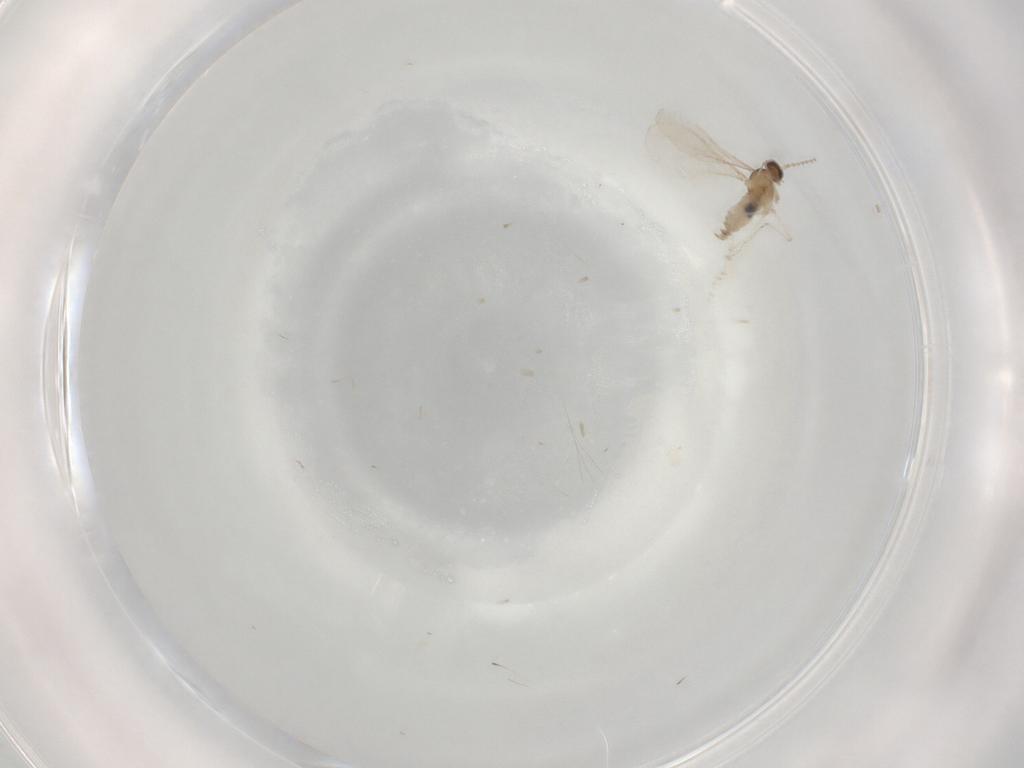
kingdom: Animalia
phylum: Arthropoda
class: Insecta
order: Diptera
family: Cecidomyiidae
